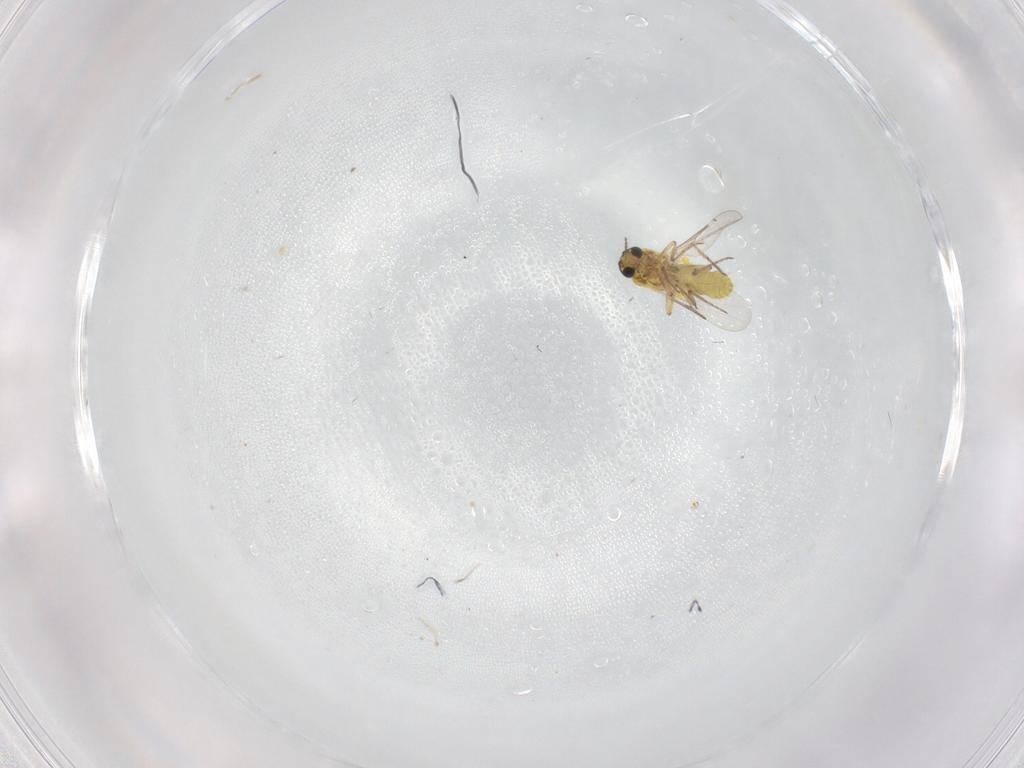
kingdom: Animalia
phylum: Arthropoda
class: Insecta
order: Diptera
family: Cecidomyiidae
